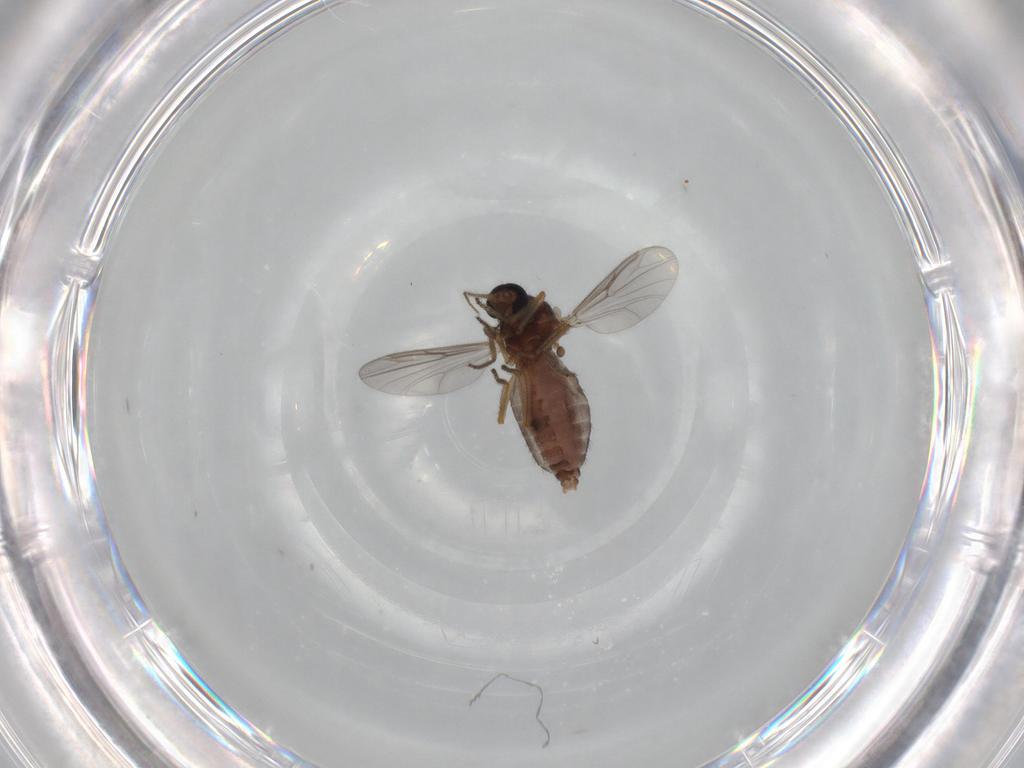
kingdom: Animalia
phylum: Arthropoda
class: Insecta
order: Diptera
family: Ceratopogonidae
